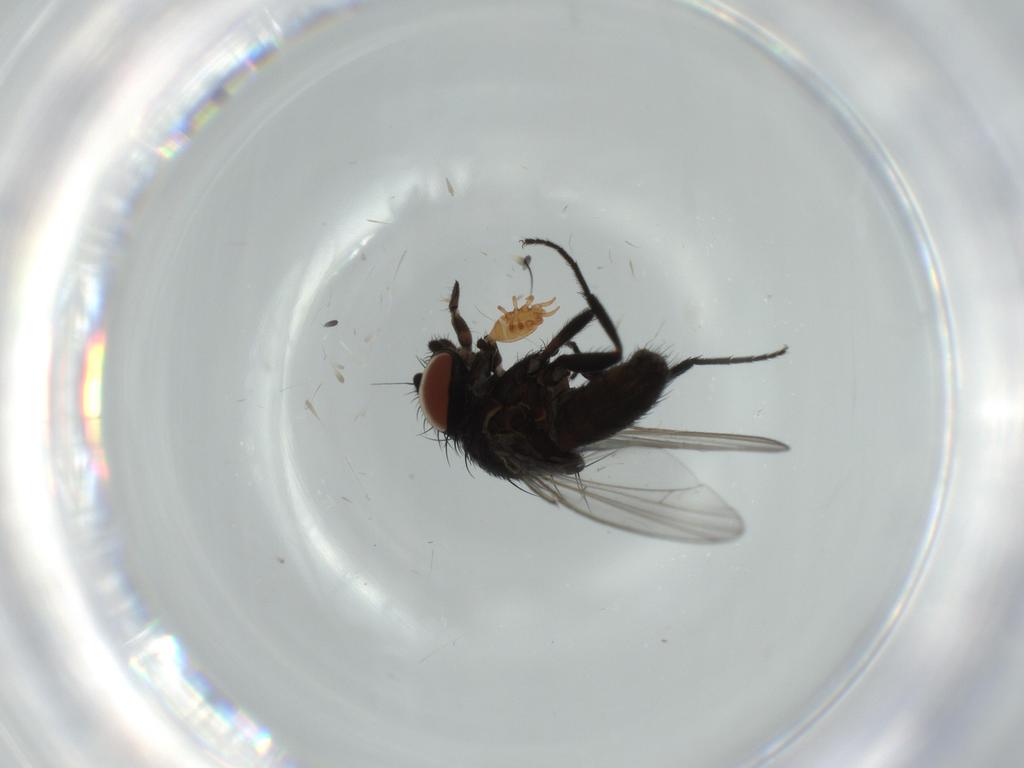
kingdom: Animalia
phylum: Arthropoda
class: Insecta
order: Diptera
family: Milichiidae
